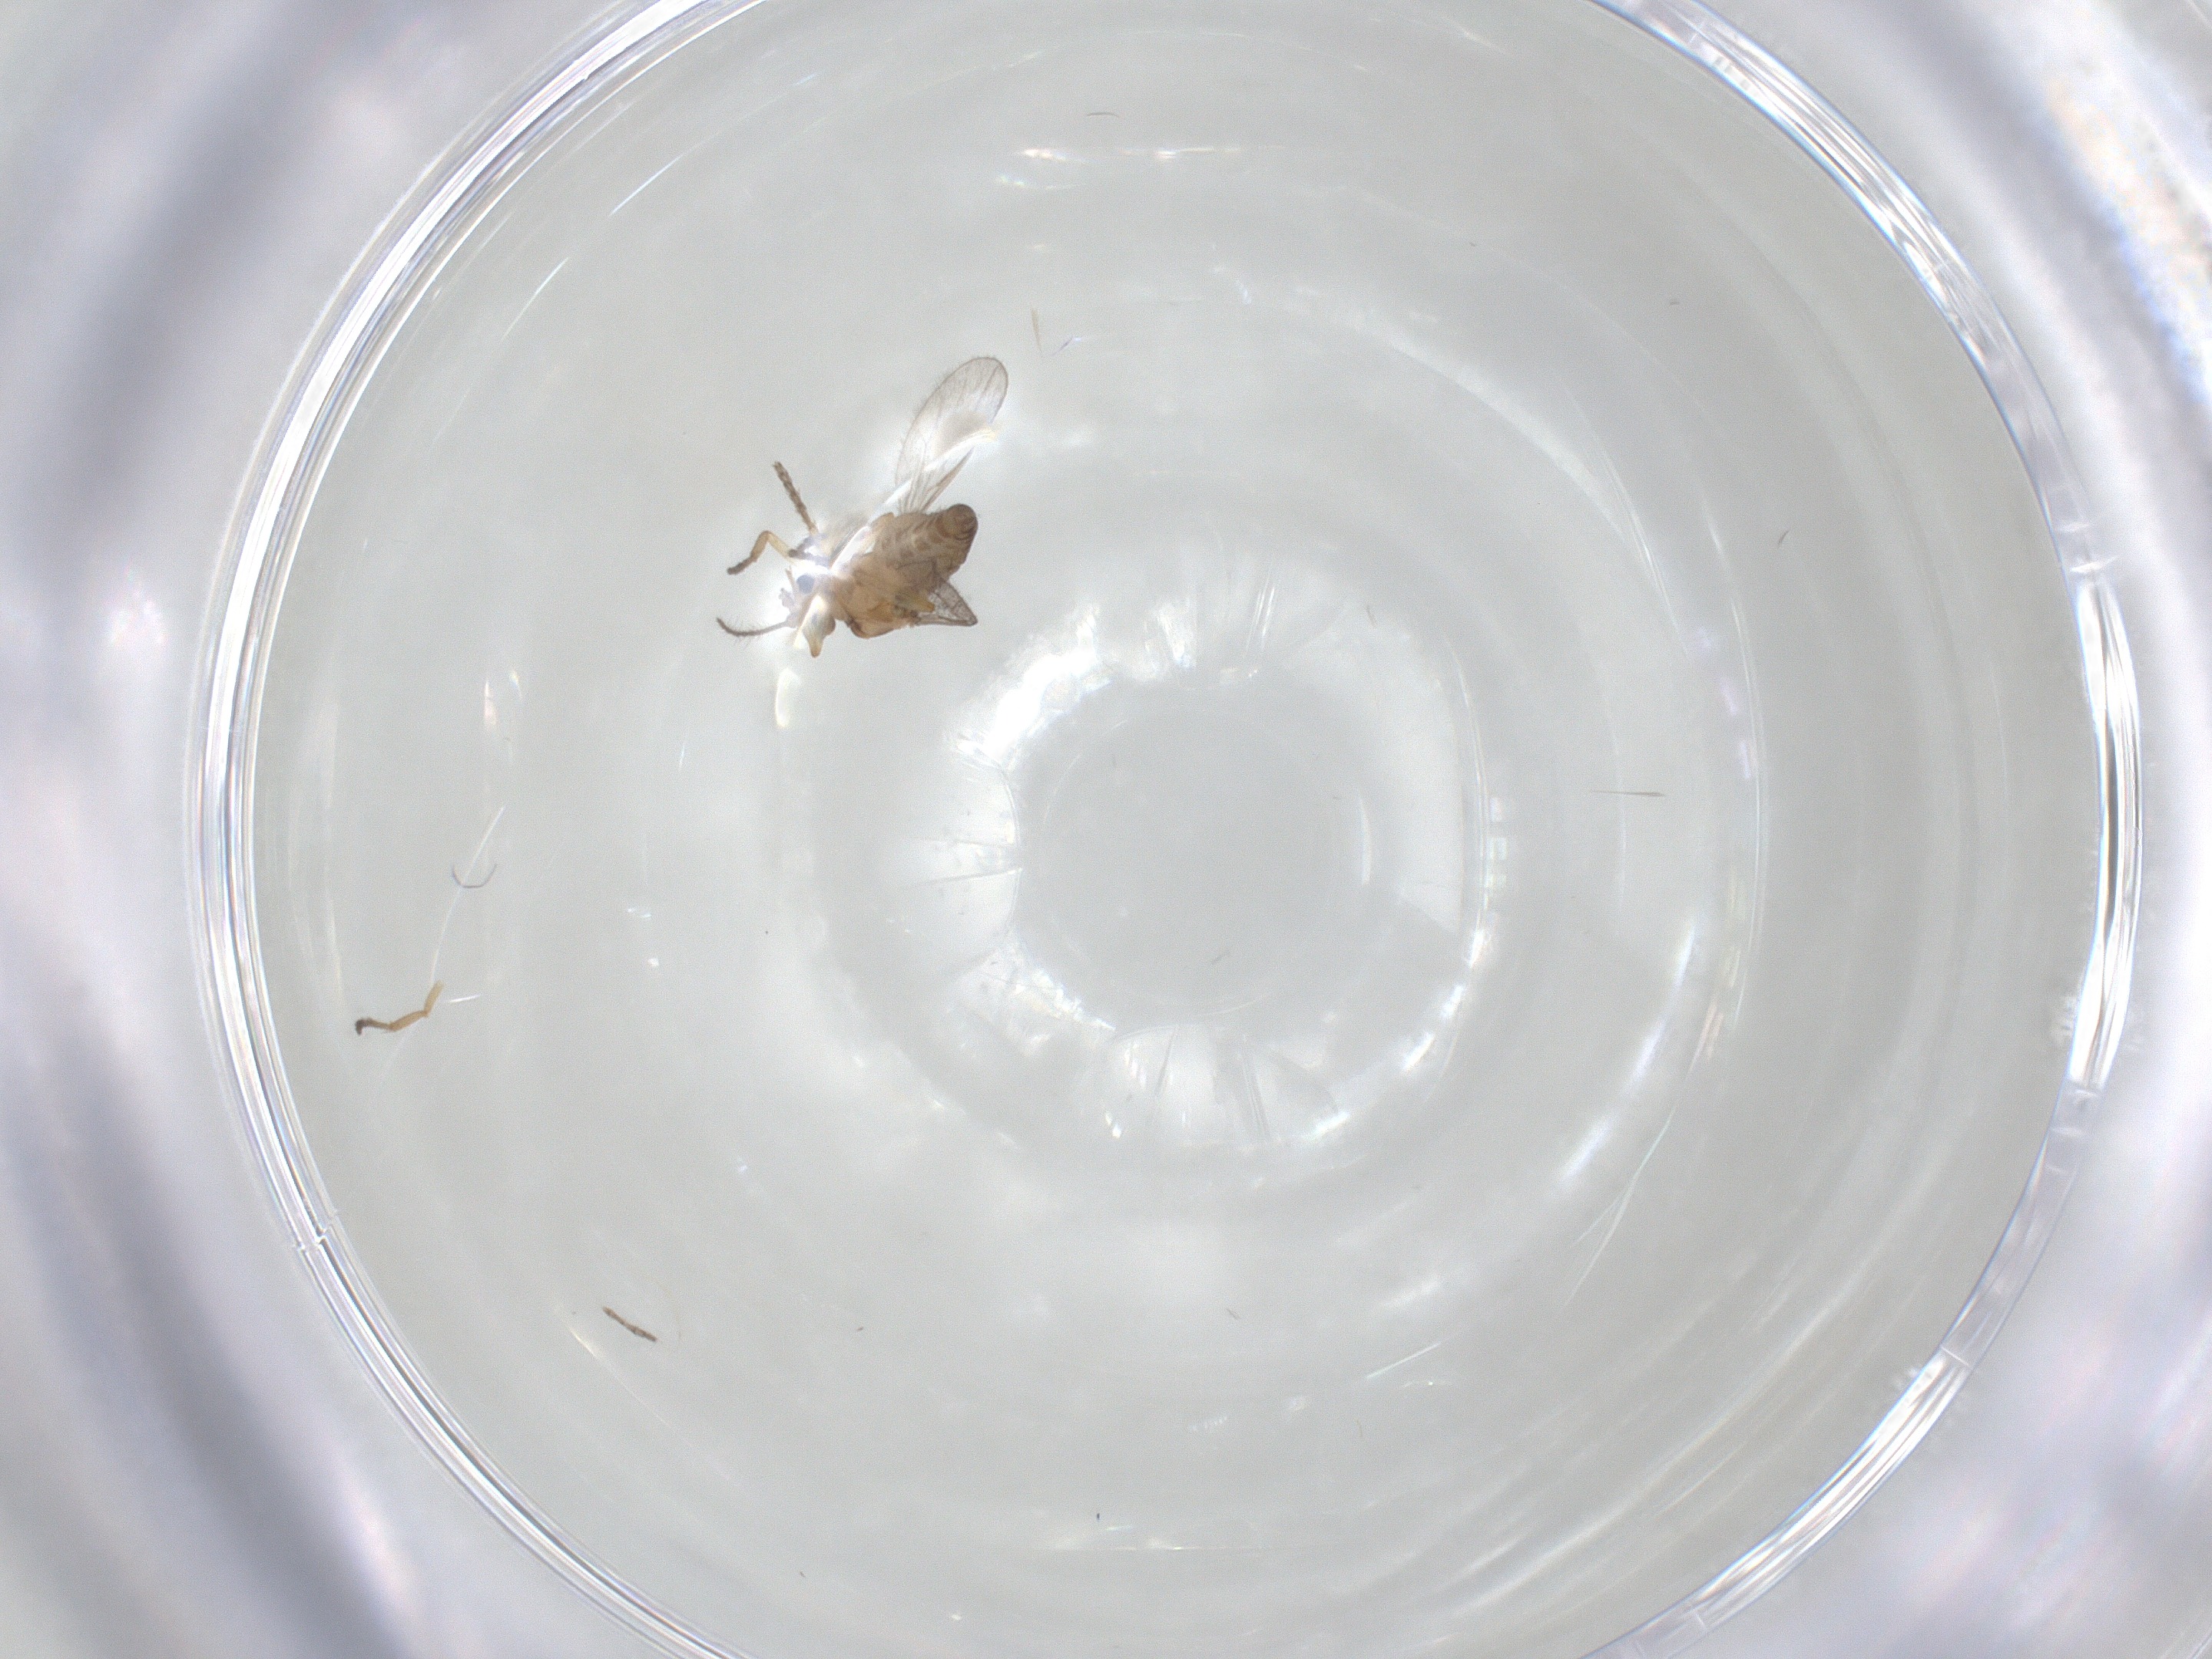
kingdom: Animalia
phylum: Arthropoda
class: Insecta
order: Diptera
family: Ceratopogonidae
